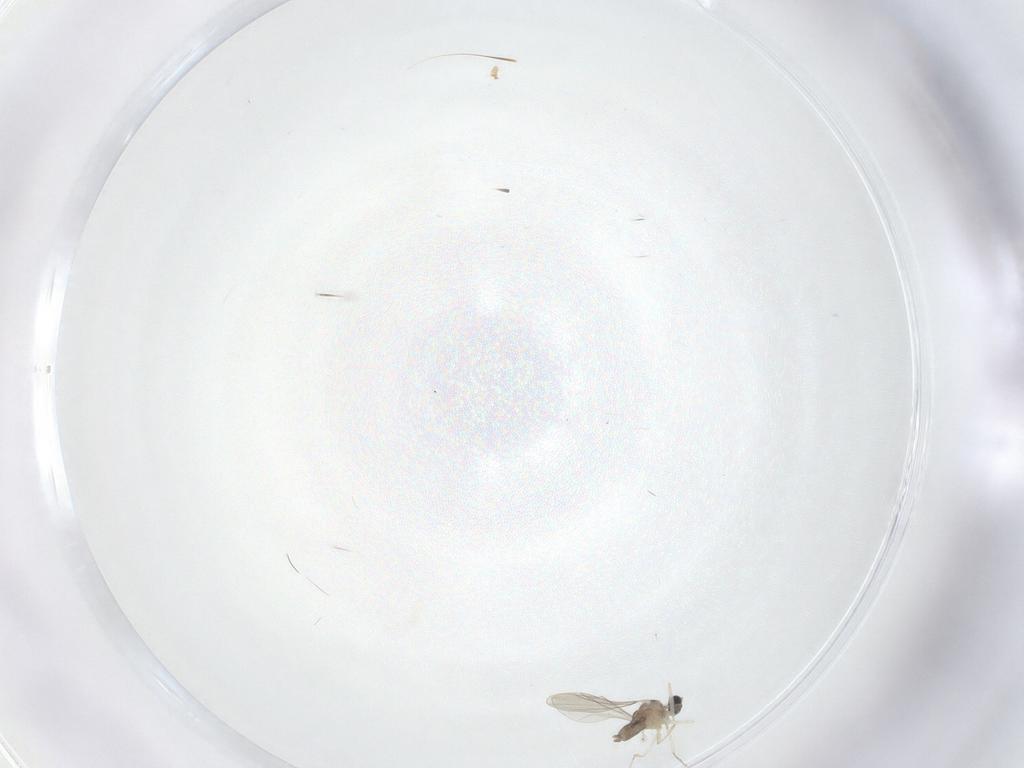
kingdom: Animalia
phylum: Arthropoda
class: Insecta
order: Diptera
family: Cecidomyiidae
